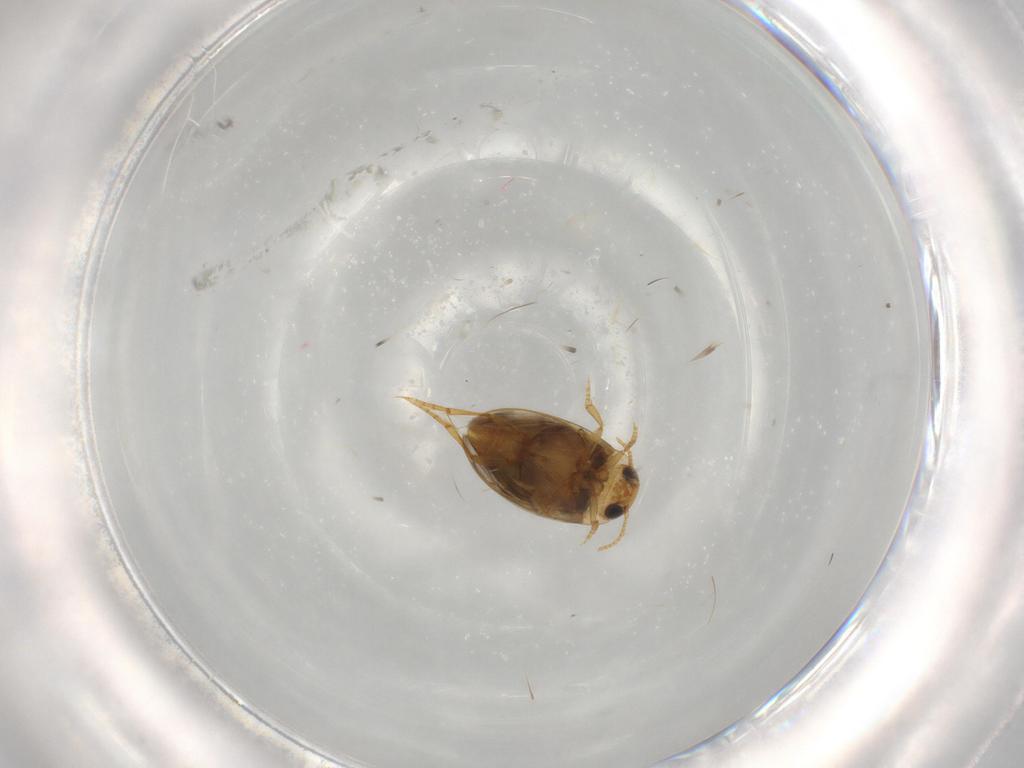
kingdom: Animalia
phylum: Arthropoda
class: Insecta
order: Coleoptera
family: Dytiscidae
